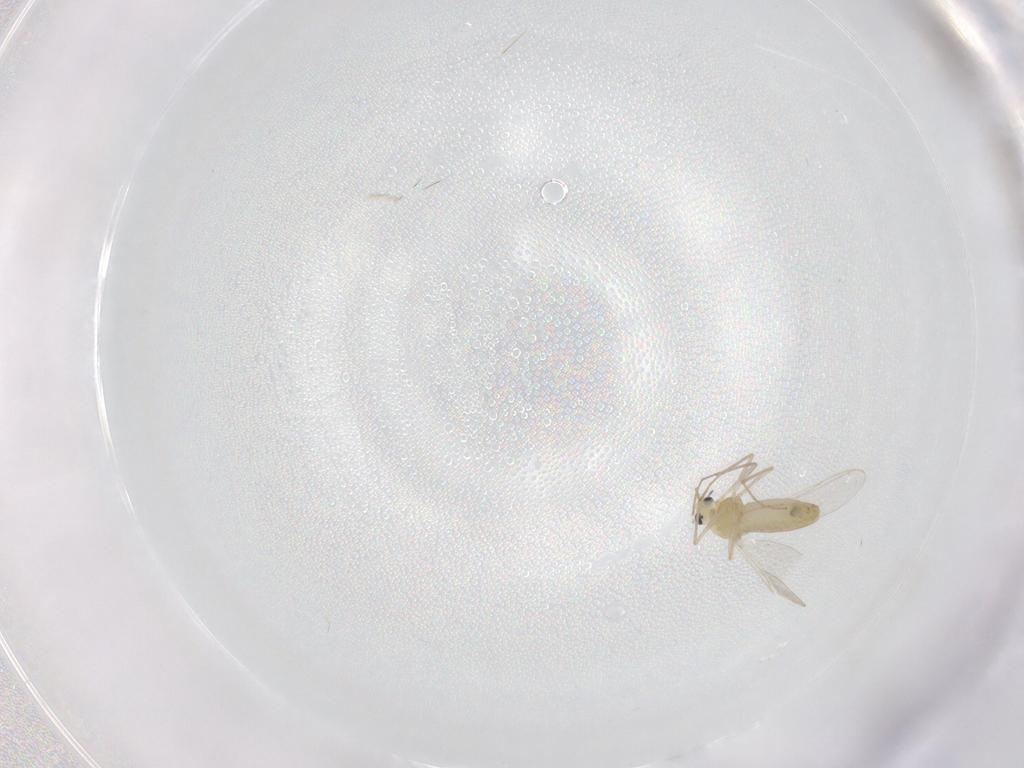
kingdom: Animalia
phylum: Arthropoda
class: Insecta
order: Diptera
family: Chironomidae
